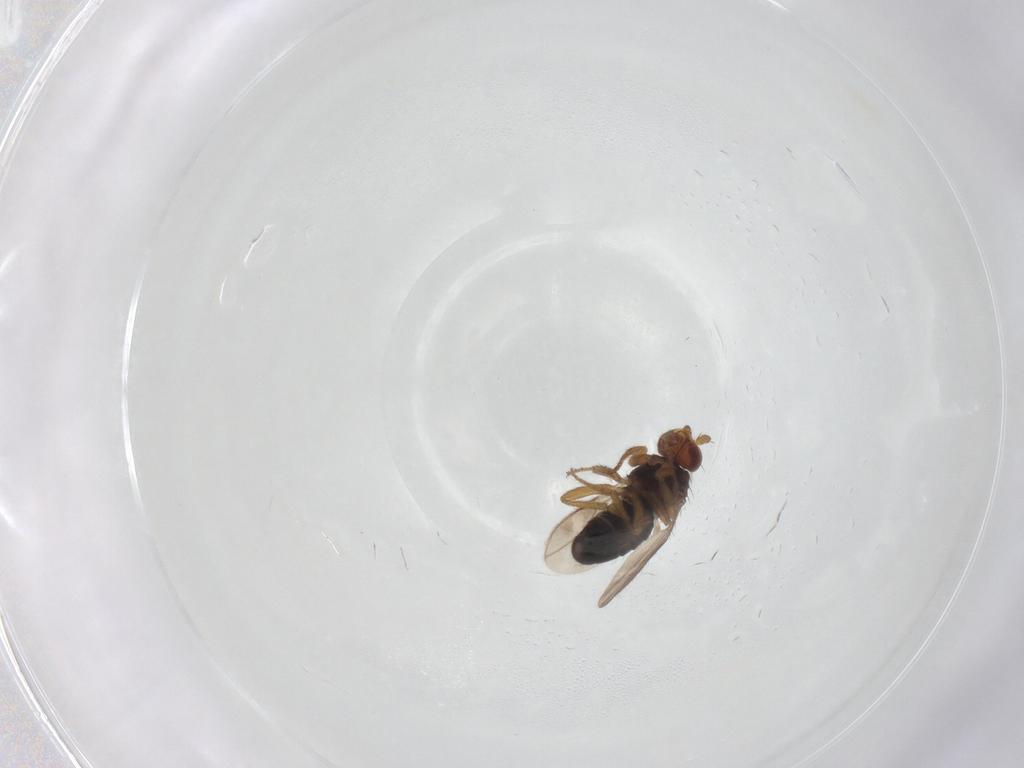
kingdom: Animalia
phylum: Arthropoda
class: Insecta
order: Diptera
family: Sphaeroceridae
